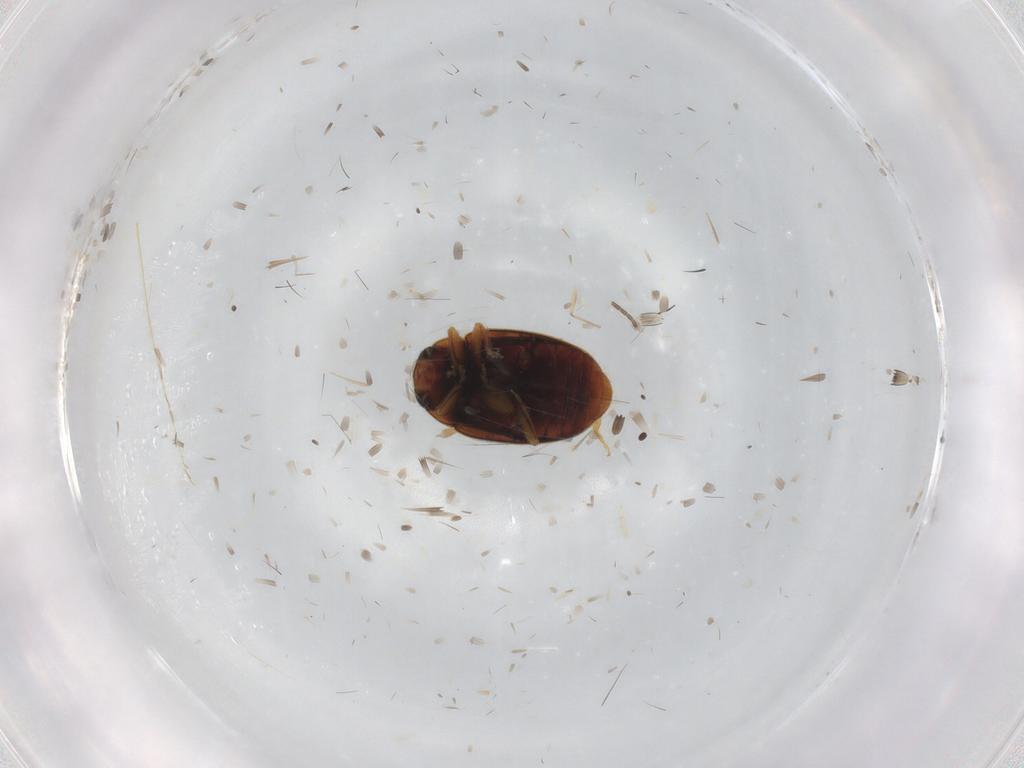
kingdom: Animalia
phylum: Arthropoda
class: Insecta
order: Coleoptera
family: Coccinellidae
